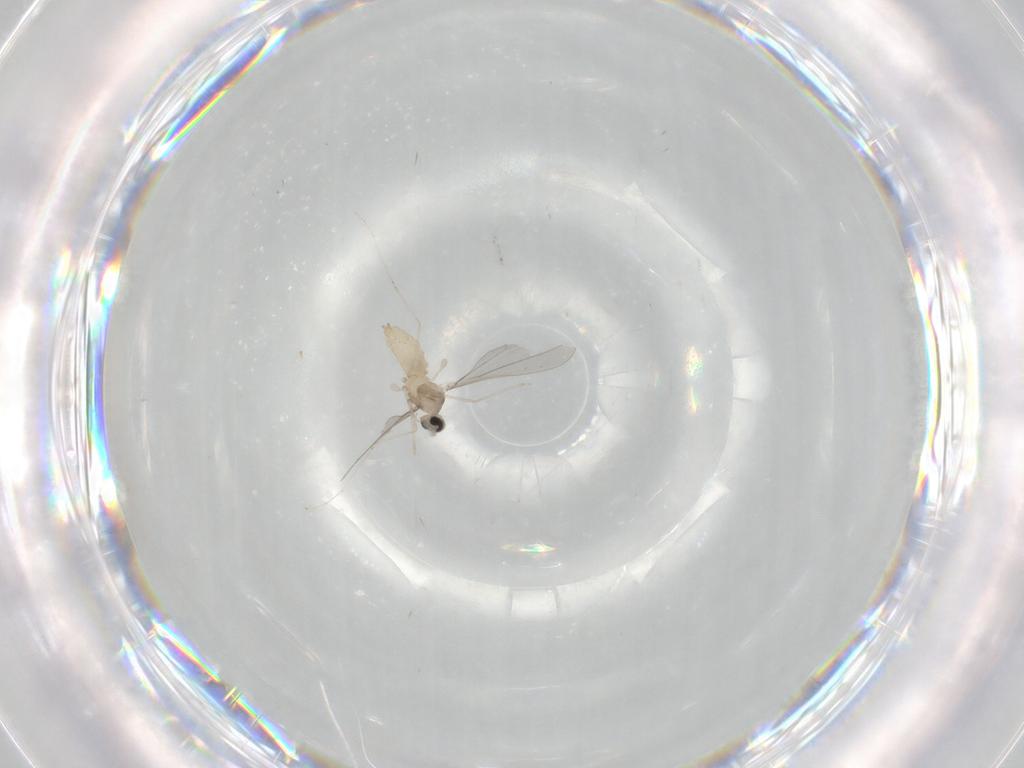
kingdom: Animalia
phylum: Arthropoda
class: Insecta
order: Diptera
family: Cecidomyiidae
